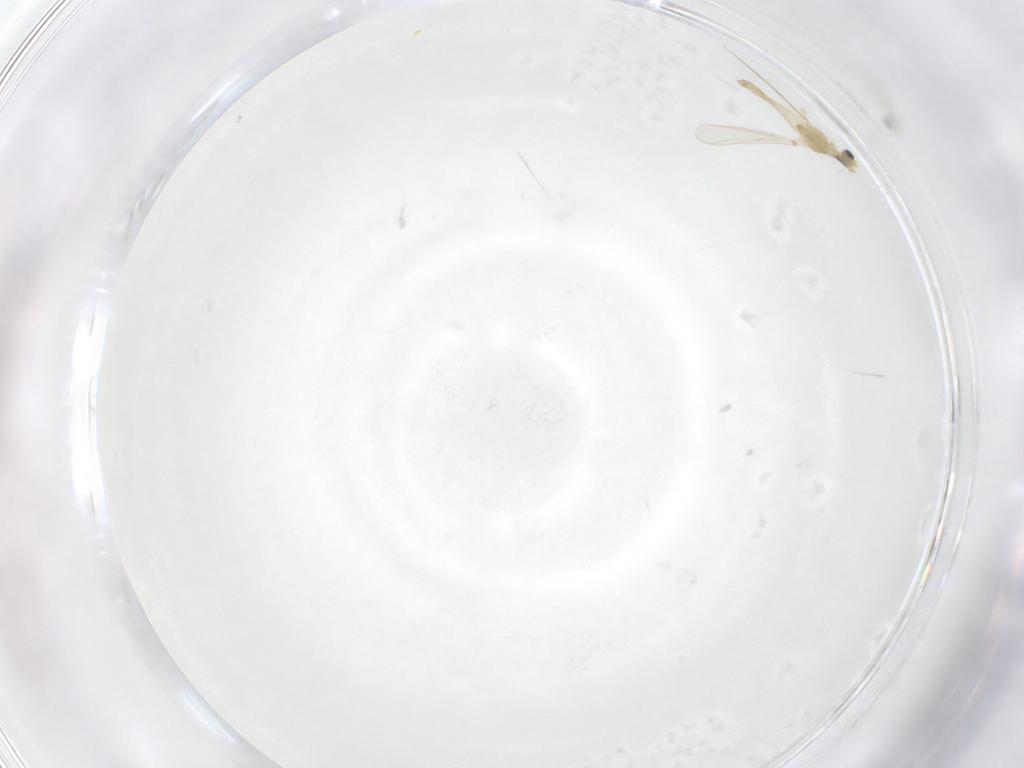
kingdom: Animalia
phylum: Arthropoda
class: Insecta
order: Diptera
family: Chironomidae
